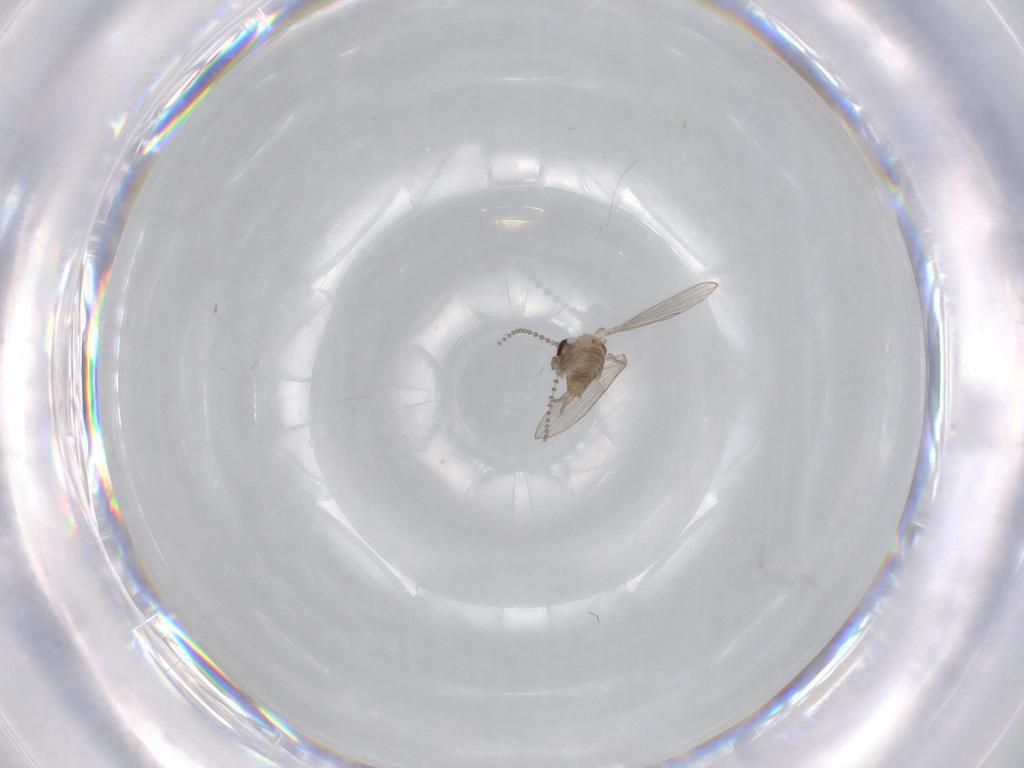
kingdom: Animalia
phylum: Arthropoda
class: Insecta
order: Diptera
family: Psychodidae
